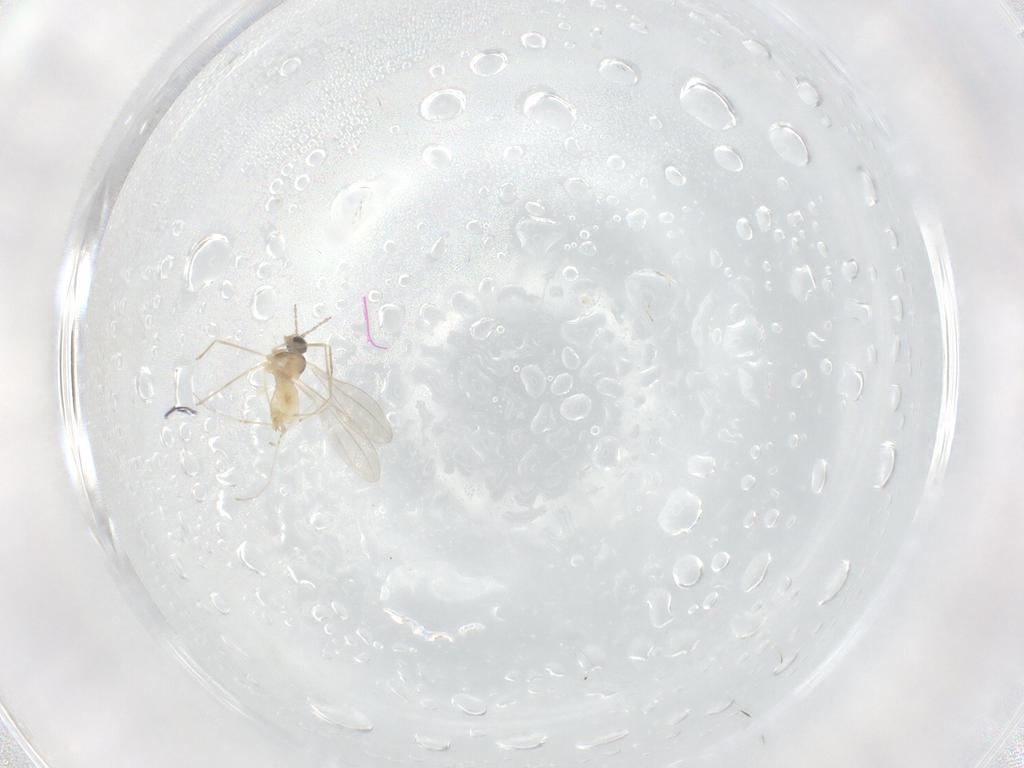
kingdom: Animalia
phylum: Arthropoda
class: Insecta
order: Diptera
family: Cecidomyiidae
